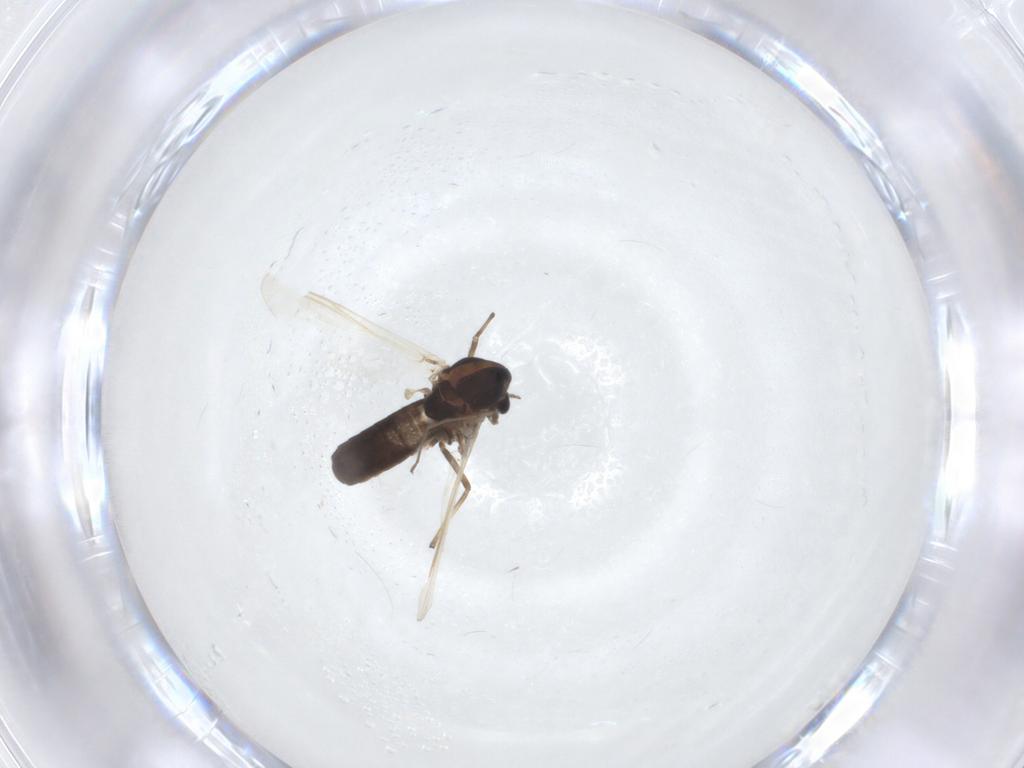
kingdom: Animalia
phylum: Arthropoda
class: Insecta
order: Diptera
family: Chironomidae
